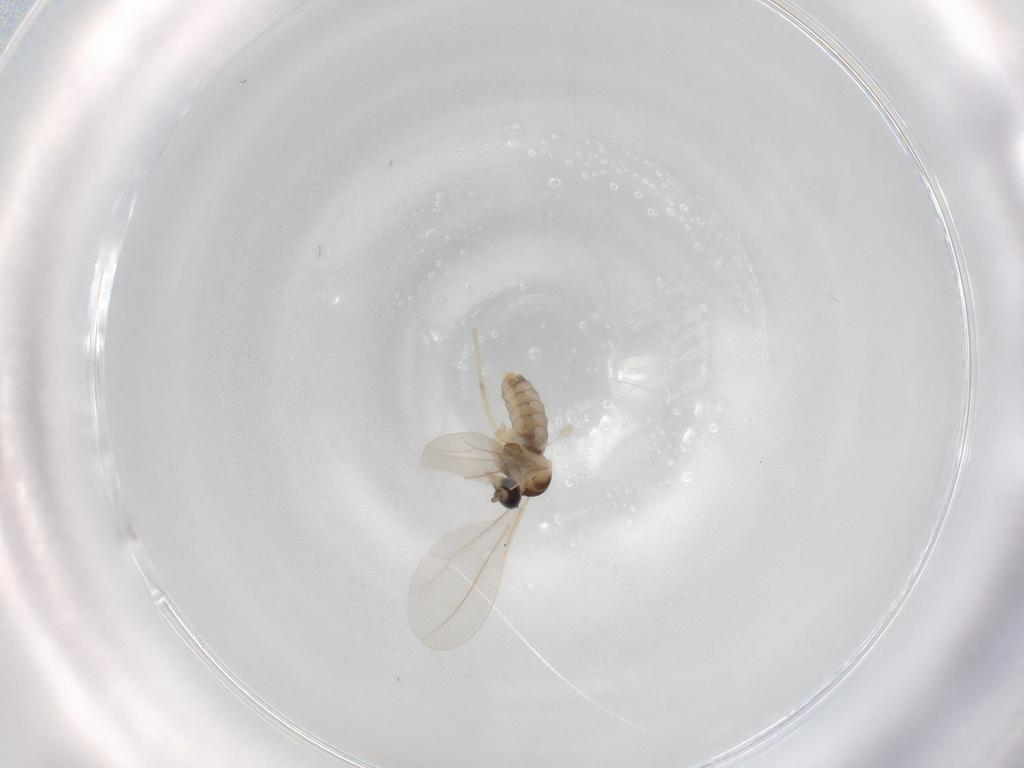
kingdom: Animalia
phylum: Arthropoda
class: Insecta
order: Diptera
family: Cecidomyiidae
